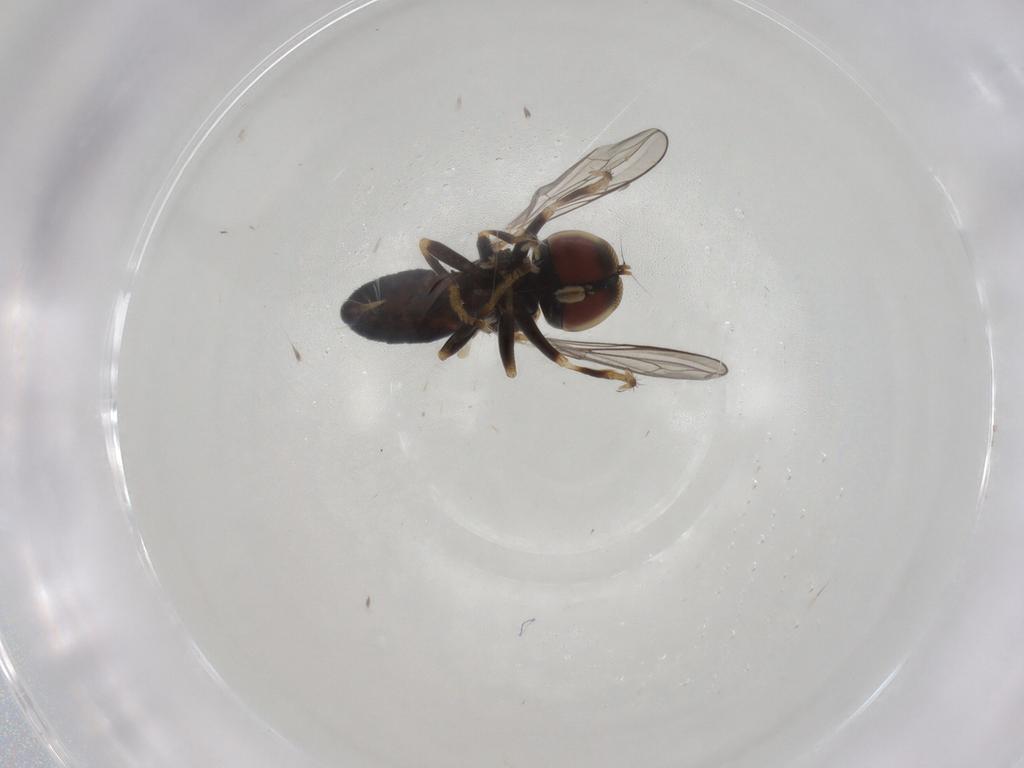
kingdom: Animalia
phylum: Arthropoda
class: Insecta
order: Diptera
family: Pipunculidae
